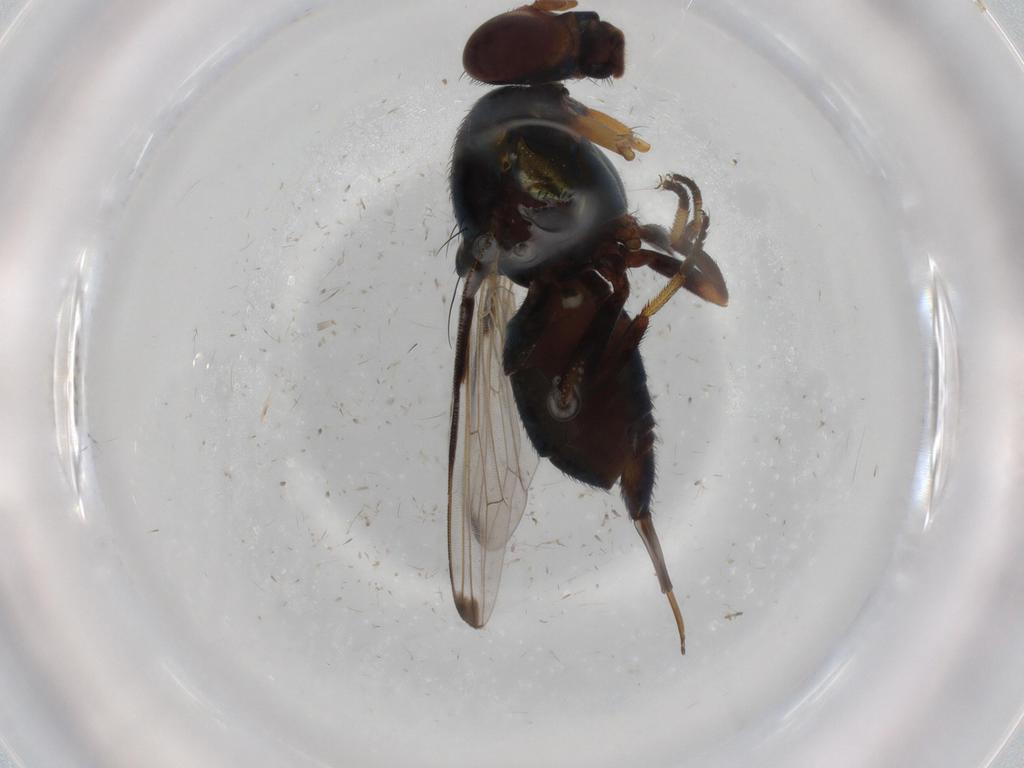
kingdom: Animalia
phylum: Arthropoda
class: Insecta
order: Diptera
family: Ulidiidae
